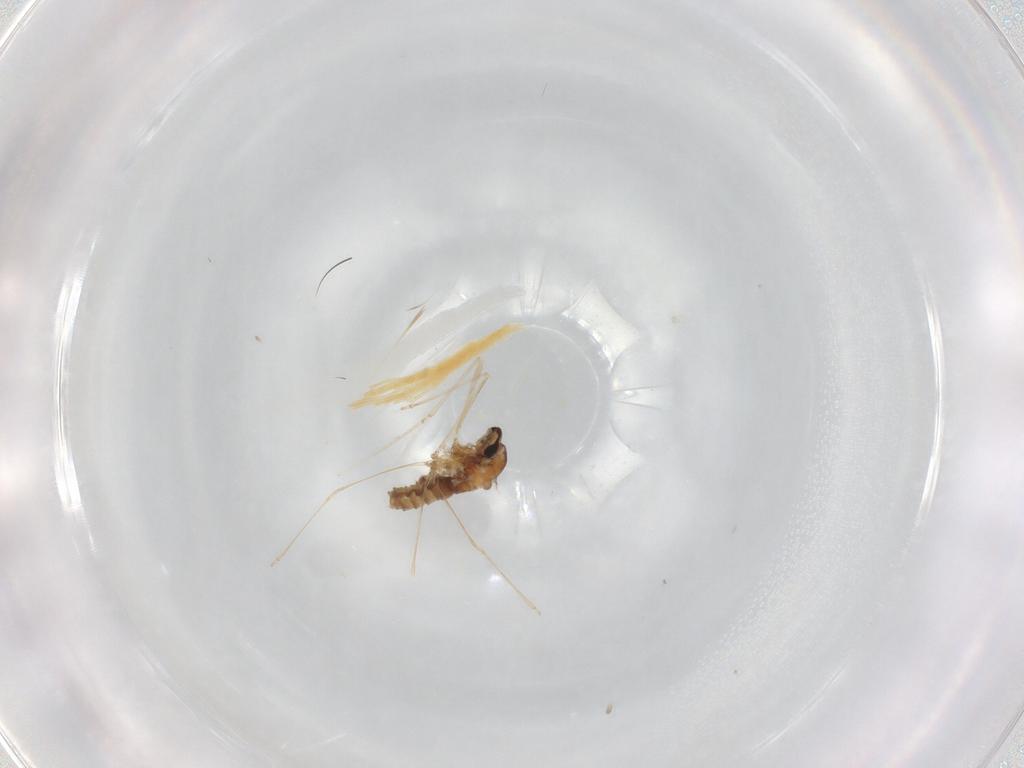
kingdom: Animalia
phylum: Arthropoda
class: Insecta
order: Diptera
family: Cecidomyiidae
